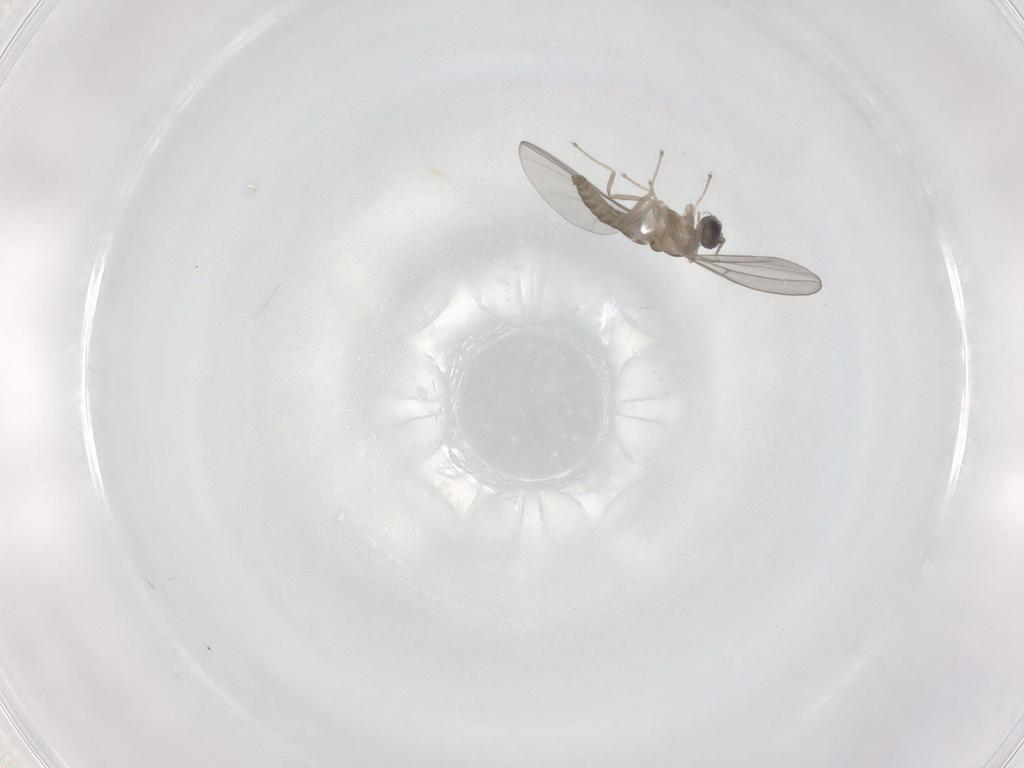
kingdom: Animalia
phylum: Arthropoda
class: Insecta
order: Diptera
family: Cecidomyiidae
